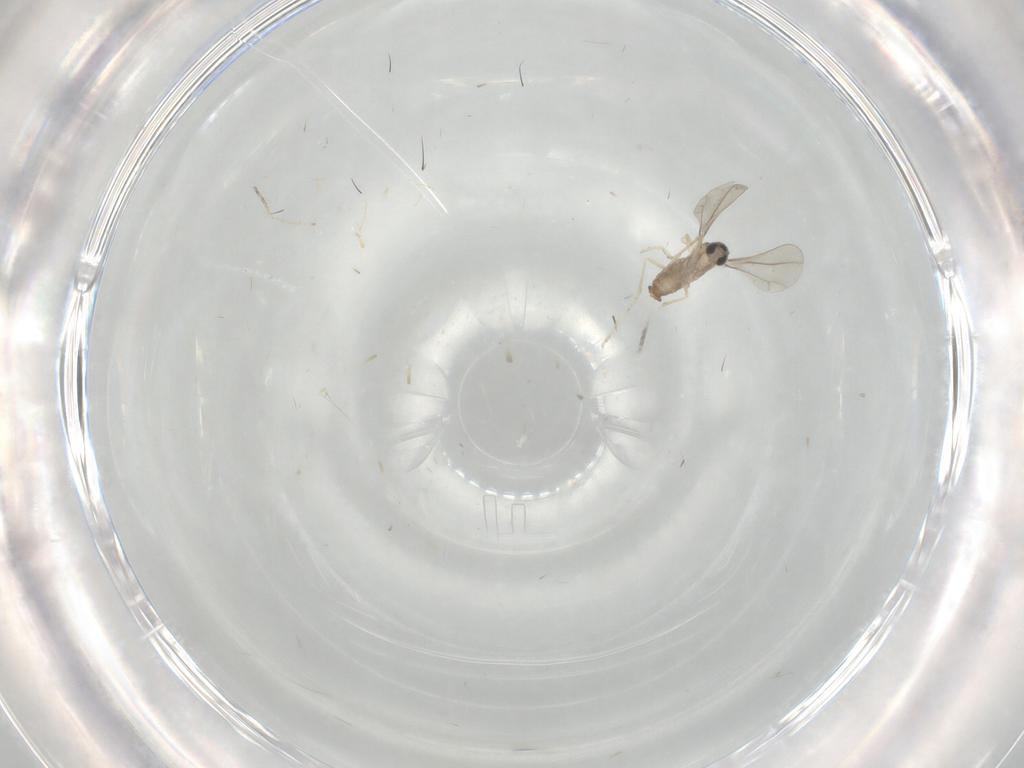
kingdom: Animalia
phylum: Arthropoda
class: Insecta
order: Diptera
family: Cecidomyiidae
